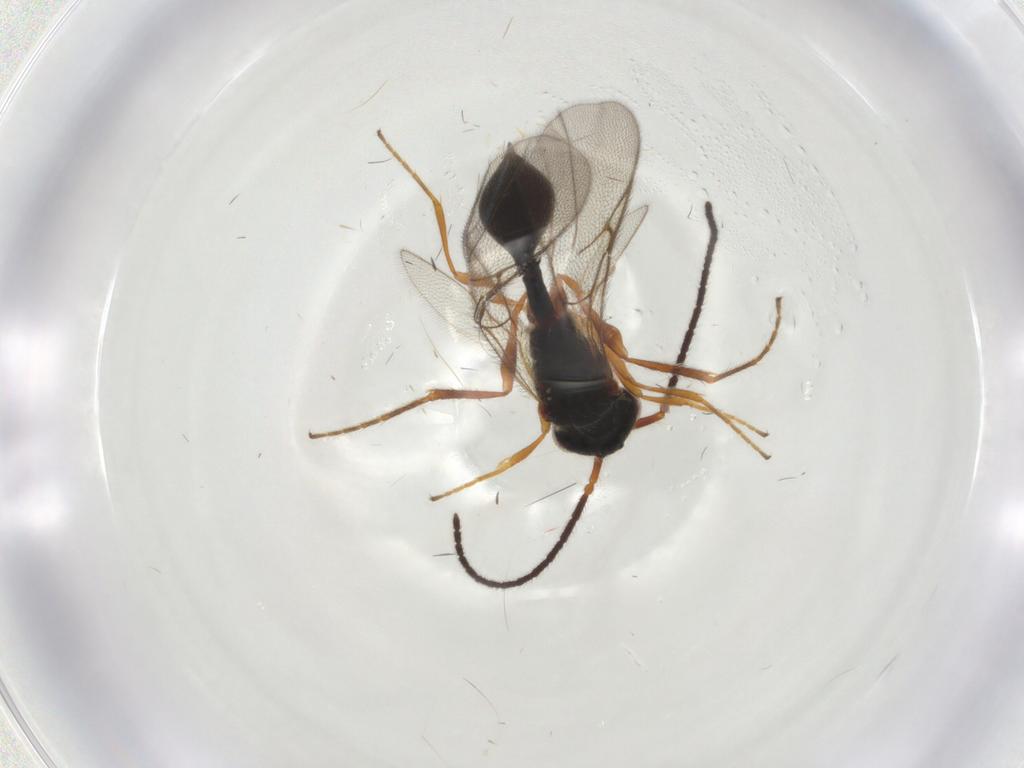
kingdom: Animalia
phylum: Arthropoda
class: Insecta
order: Hymenoptera
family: Diapriidae
